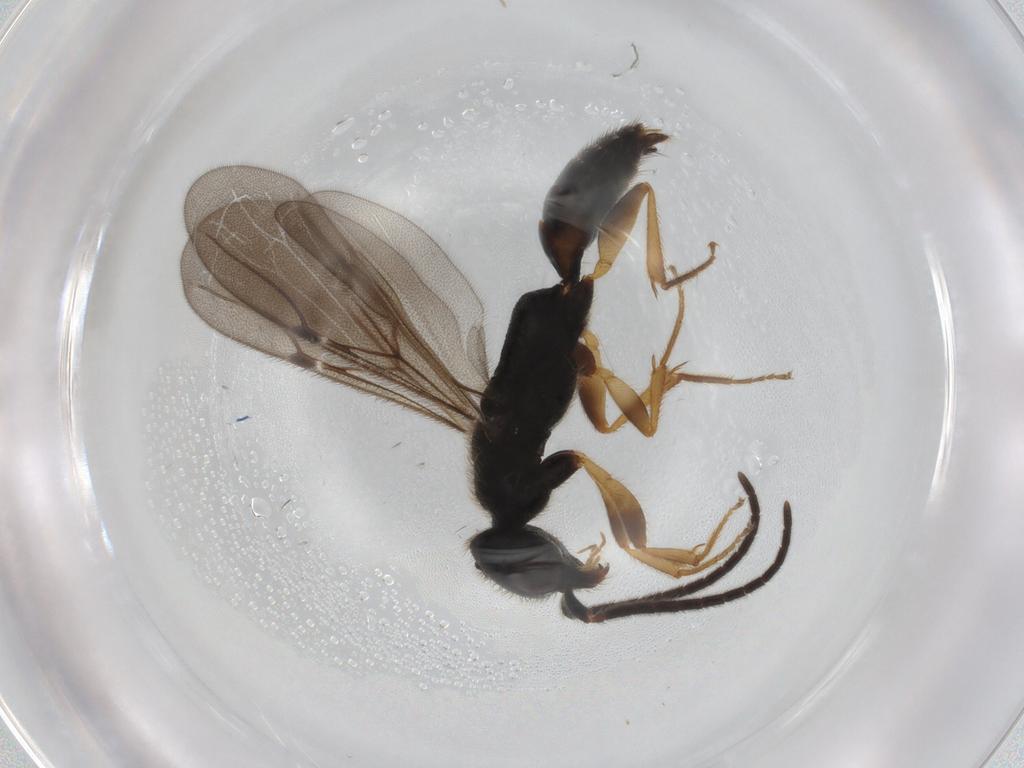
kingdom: Animalia
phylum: Arthropoda
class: Insecta
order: Hymenoptera
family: Bethylidae
